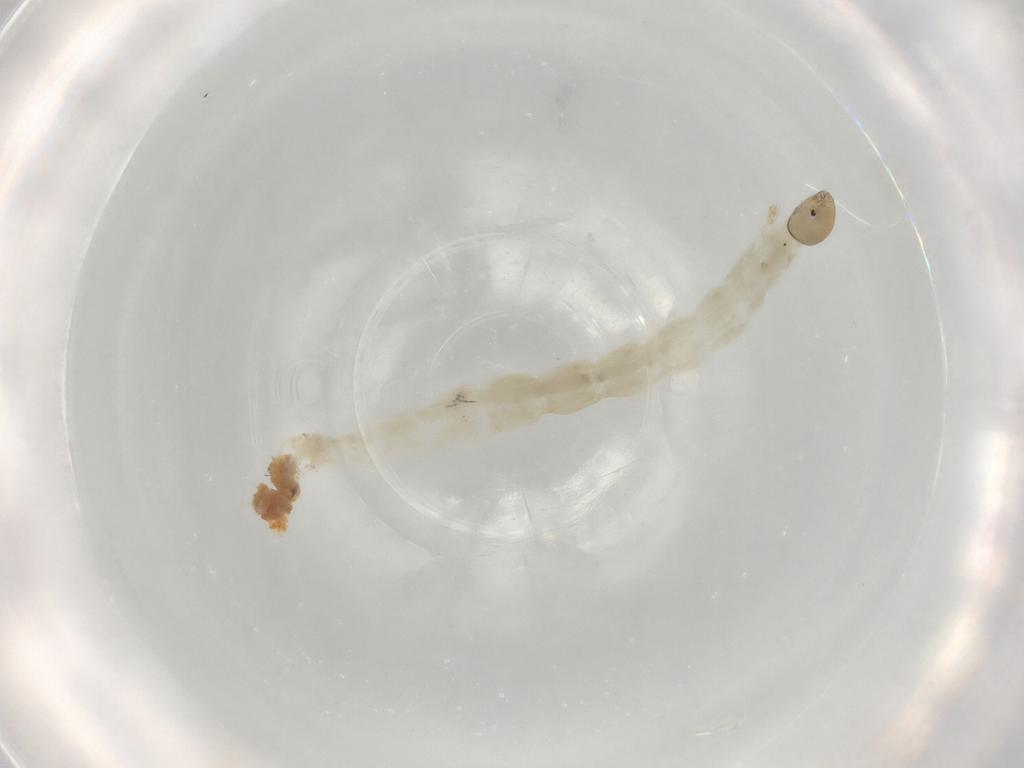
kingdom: Animalia
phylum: Arthropoda
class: Insecta
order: Diptera
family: Chironomidae
